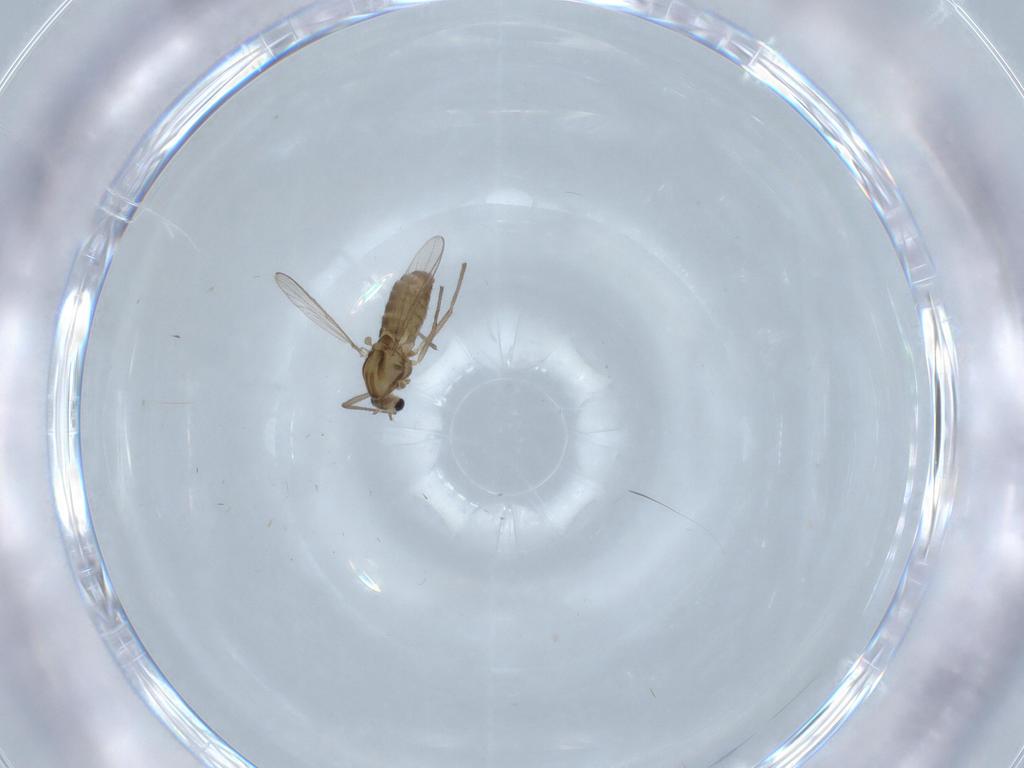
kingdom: Animalia
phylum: Arthropoda
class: Insecta
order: Diptera
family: Chironomidae
